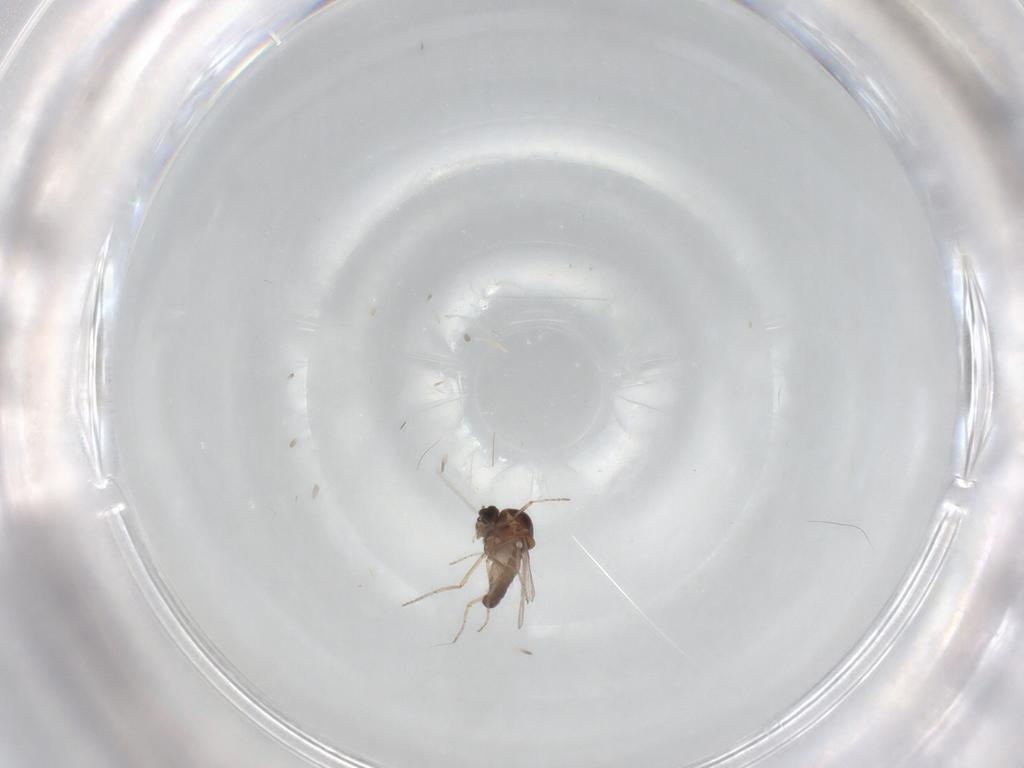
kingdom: Animalia
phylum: Arthropoda
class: Insecta
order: Diptera
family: Ceratopogonidae
